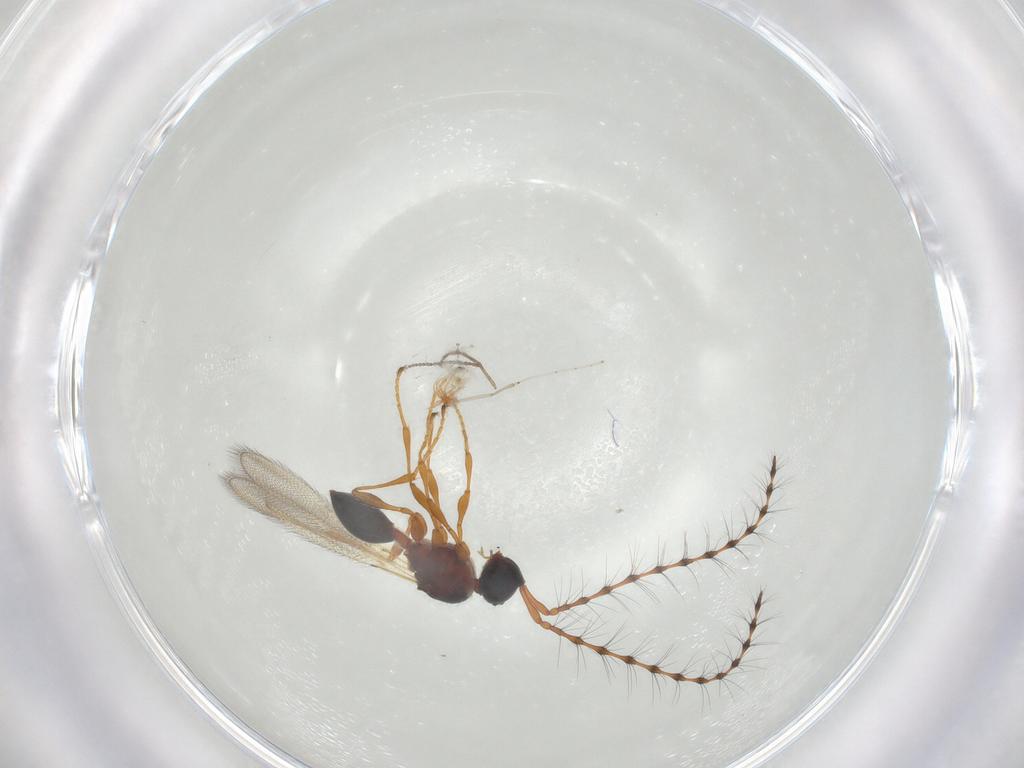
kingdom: Animalia
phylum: Arthropoda
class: Insecta
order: Hymenoptera
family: Diapriidae
